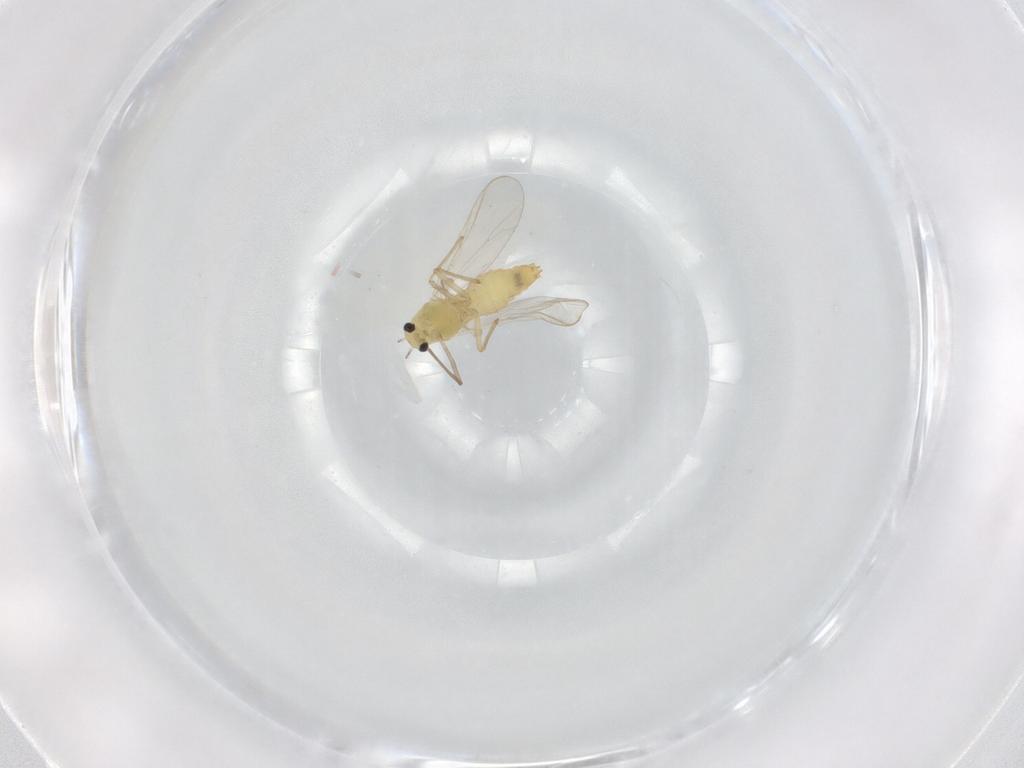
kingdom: Animalia
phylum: Arthropoda
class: Insecta
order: Diptera
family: Chironomidae
